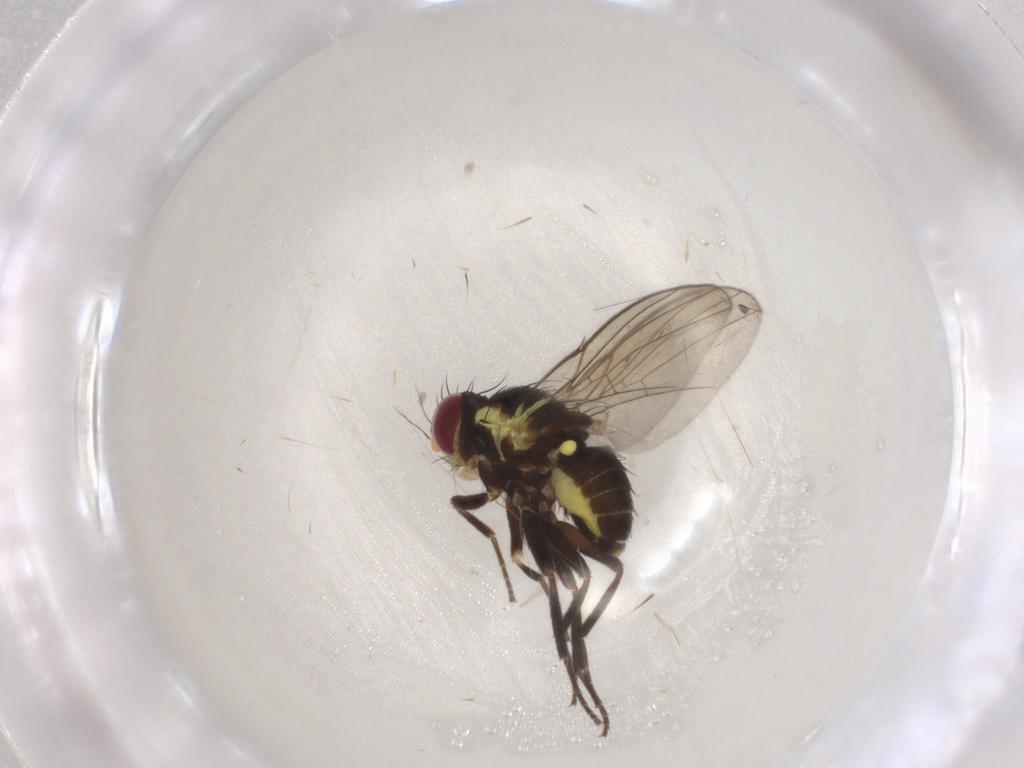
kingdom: Animalia
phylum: Arthropoda
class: Insecta
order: Diptera
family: Agromyzidae
